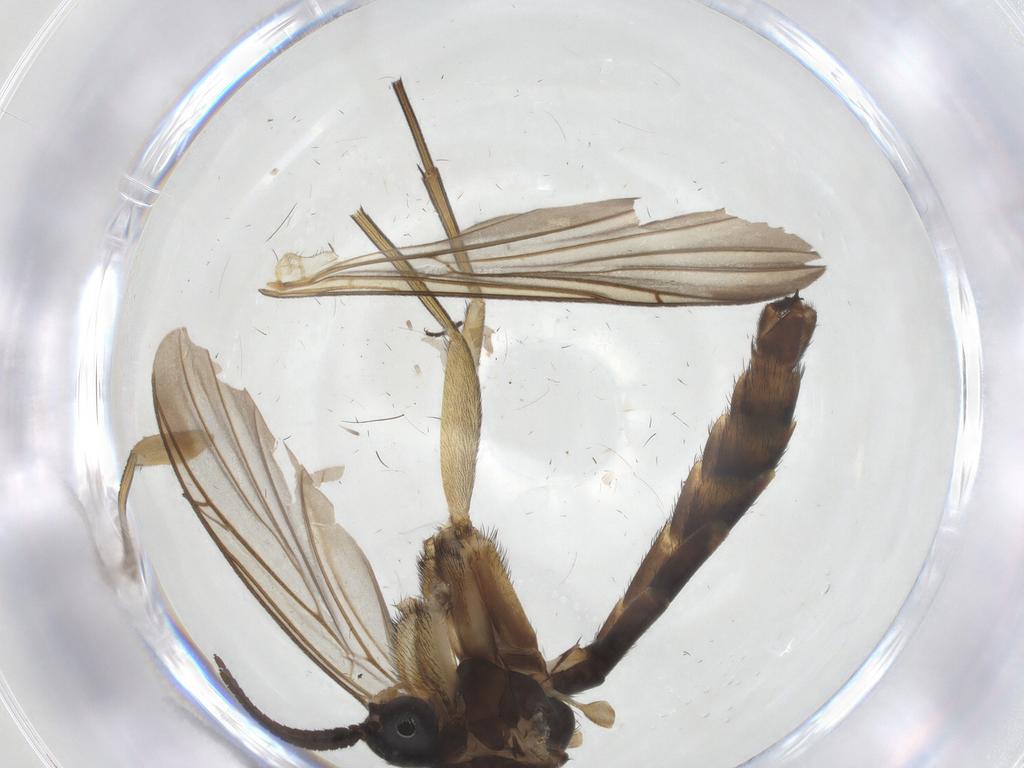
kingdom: Animalia
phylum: Arthropoda
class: Insecta
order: Diptera
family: Keroplatidae
